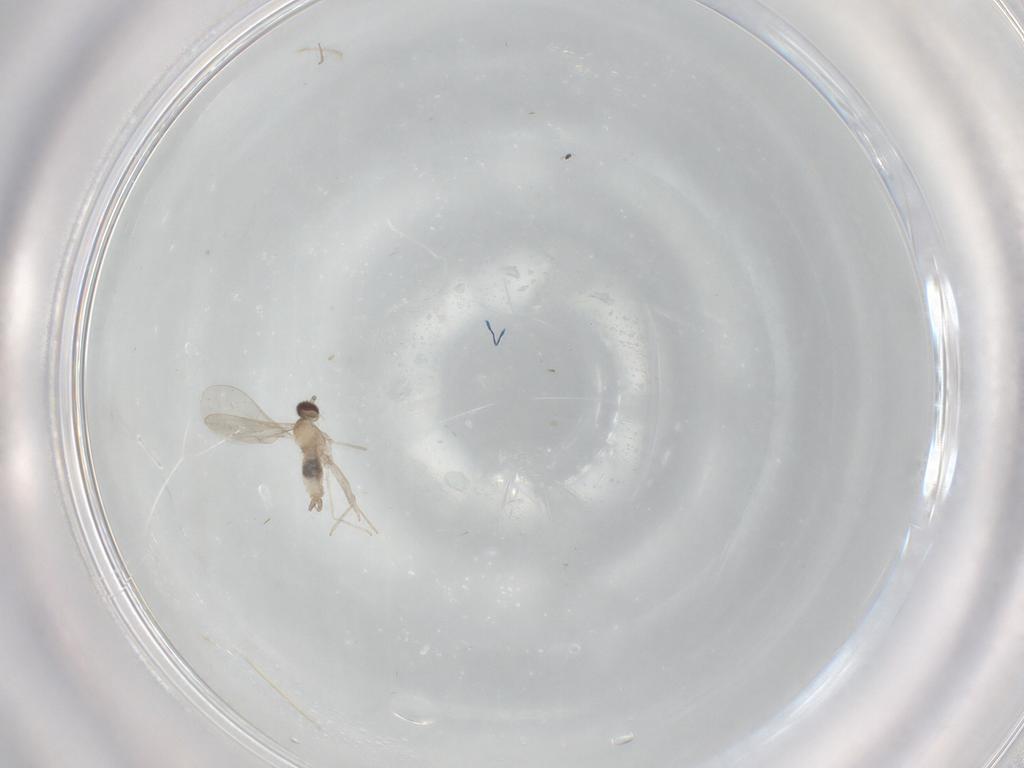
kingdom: Animalia
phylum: Arthropoda
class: Insecta
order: Diptera
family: Cecidomyiidae
